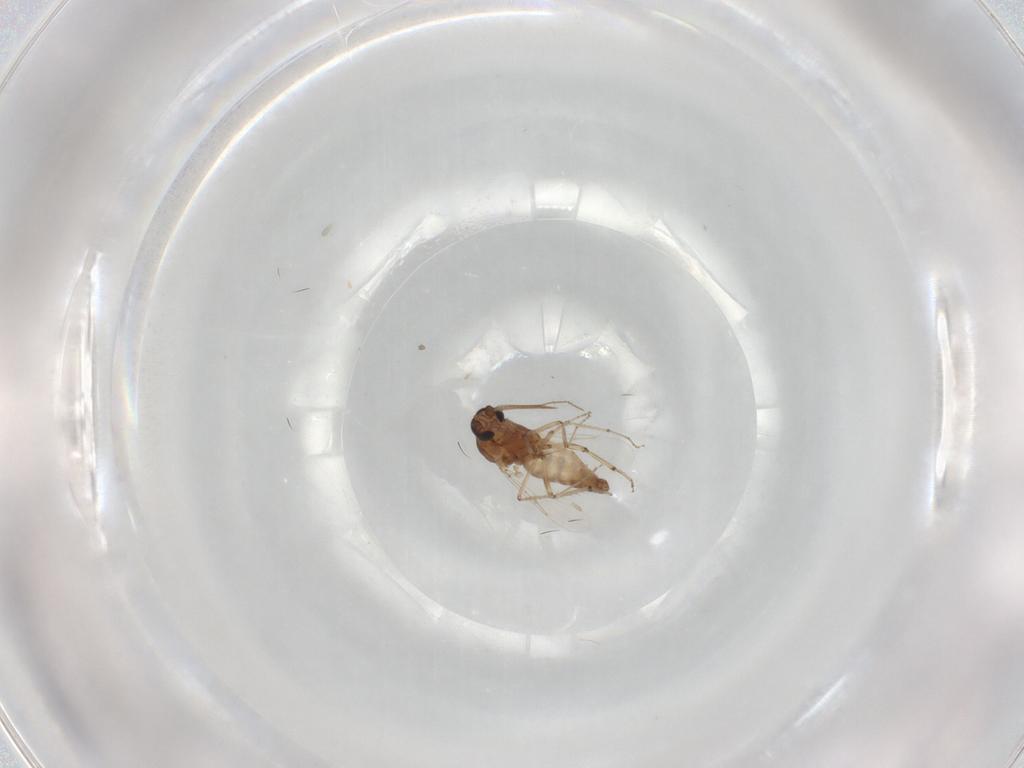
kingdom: Animalia
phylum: Arthropoda
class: Insecta
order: Diptera
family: Ceratopogonidae
